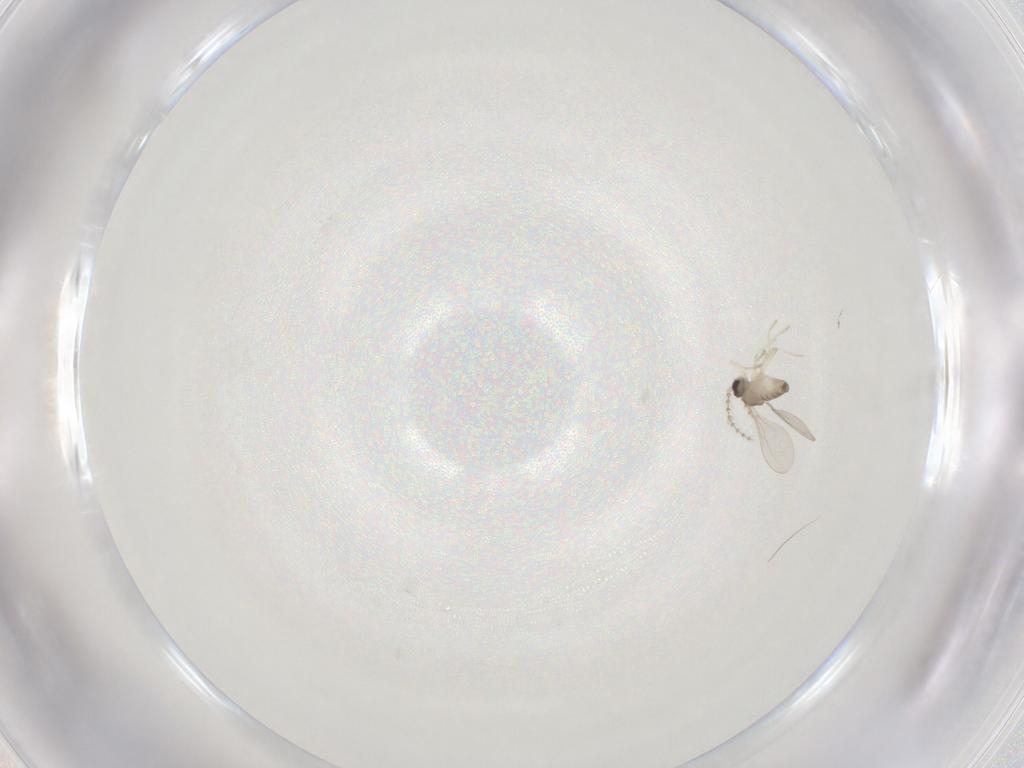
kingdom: Animalia
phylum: Arthropoda
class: Insecta
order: Diptera
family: Cecidomyiidae
